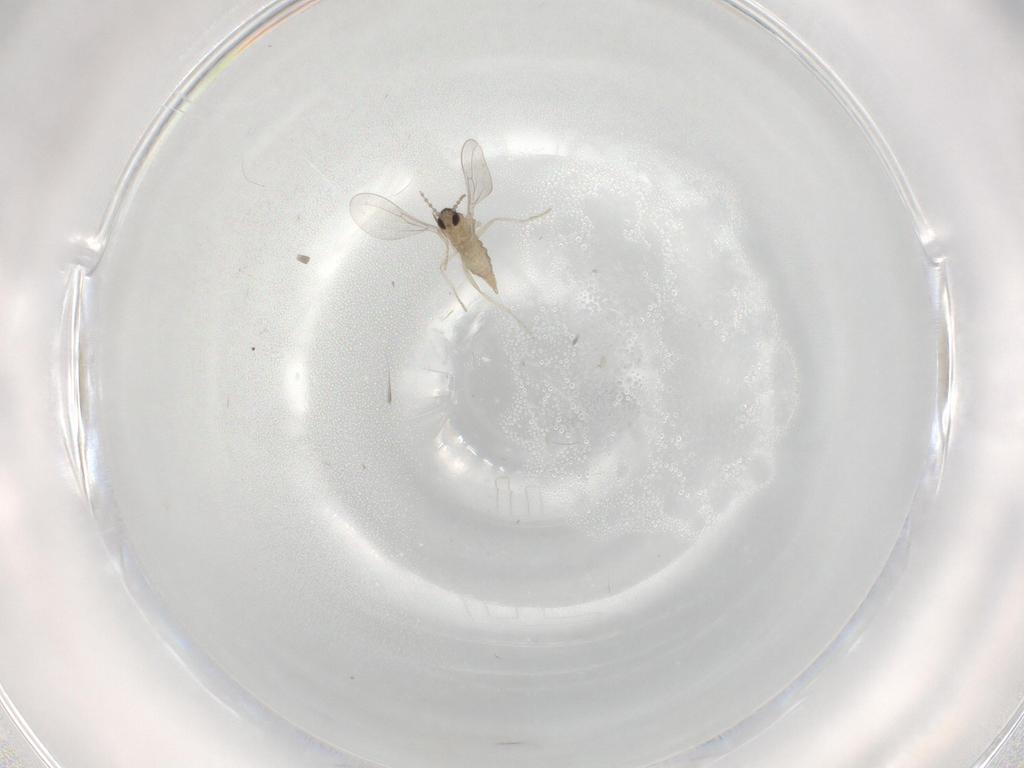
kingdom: Animalia
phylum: Arthropoda
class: Insecta
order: Diptera
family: Cecidomyiidae
